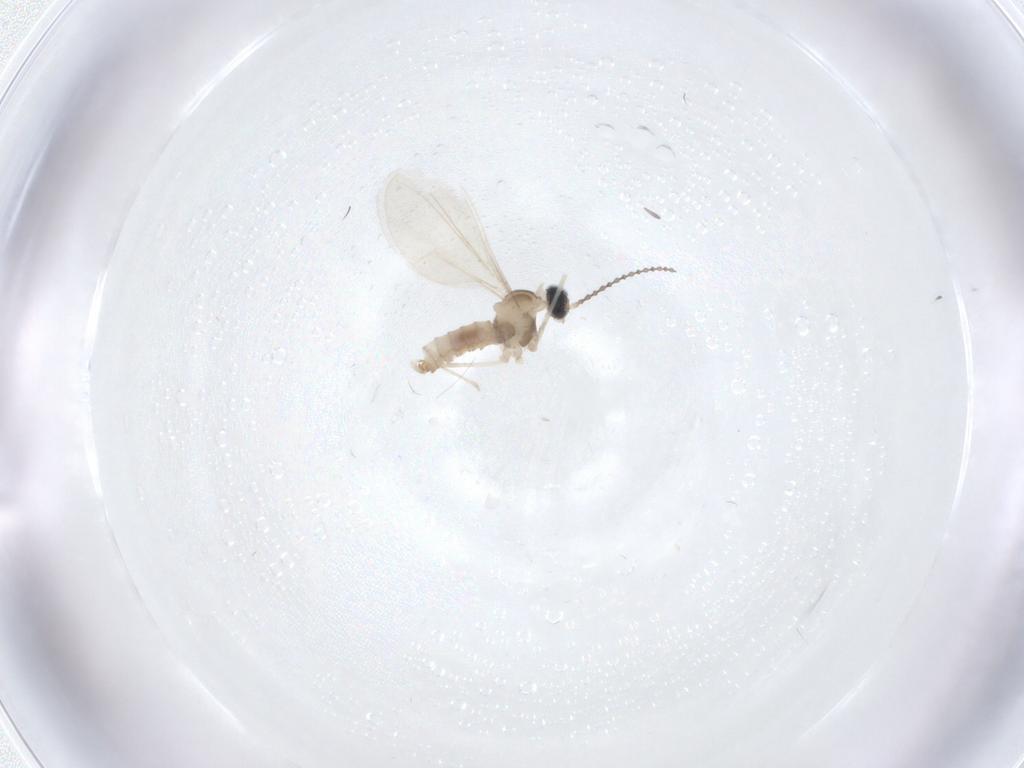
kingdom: Animalia
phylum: Arthropoda
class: Insecta
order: Diptera
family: Cecidomyiidae
